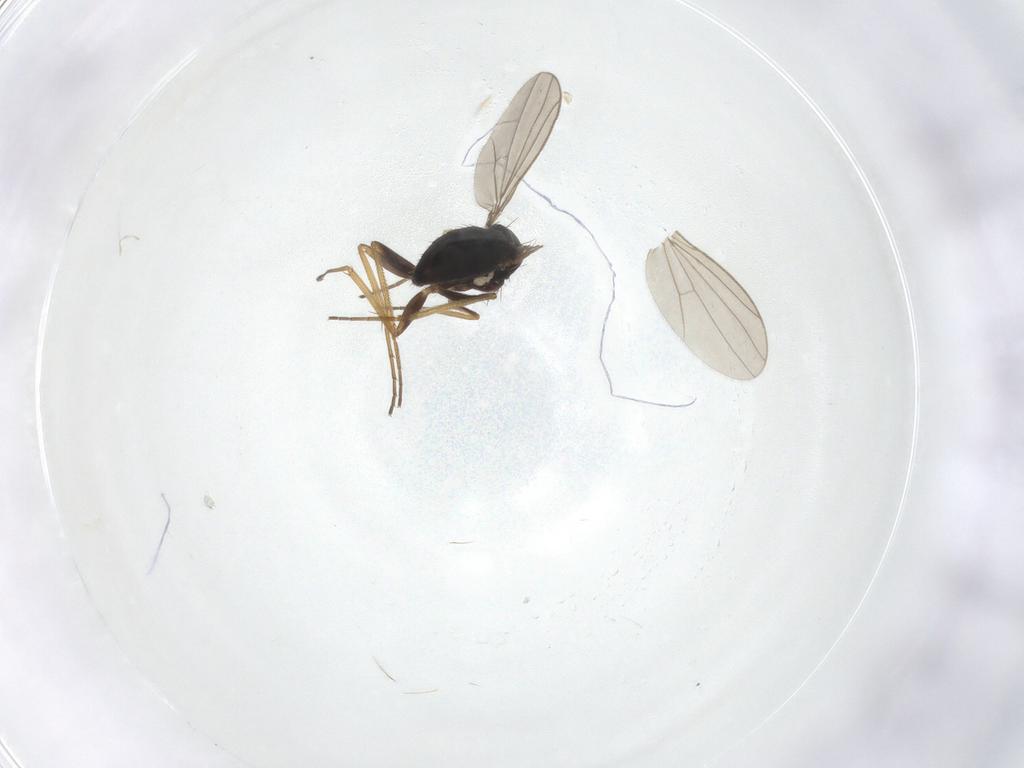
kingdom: Animalia
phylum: Arthropoda
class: Insecta
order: Diptera
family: Dolichopodidae
